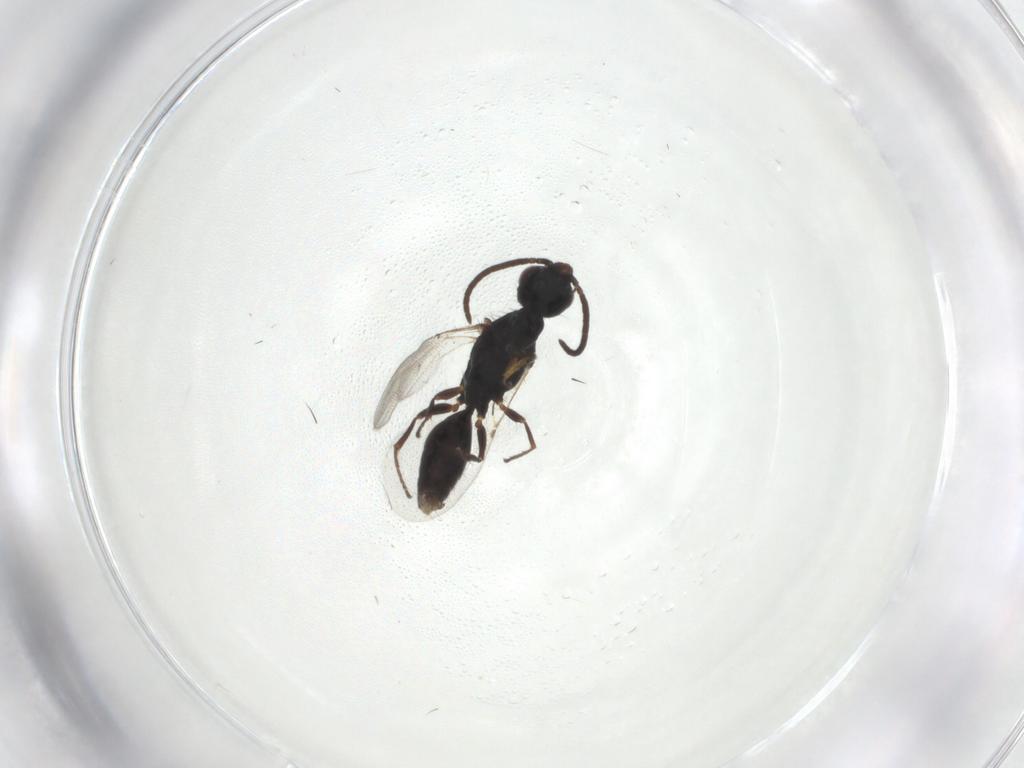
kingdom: Animalia
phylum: Arthropoda
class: Insecta
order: Hymenoptera
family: Bethylidae
